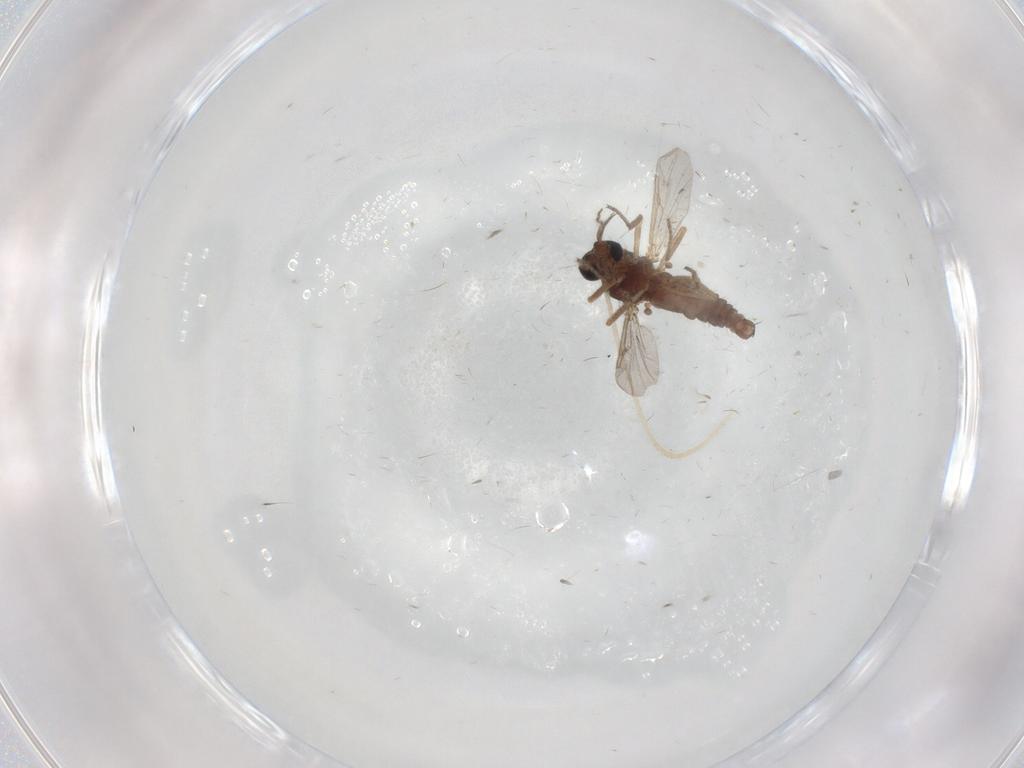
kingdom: Animalia
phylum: Arthropoda
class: Insecta
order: Diptera
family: Ceratopogonidae
